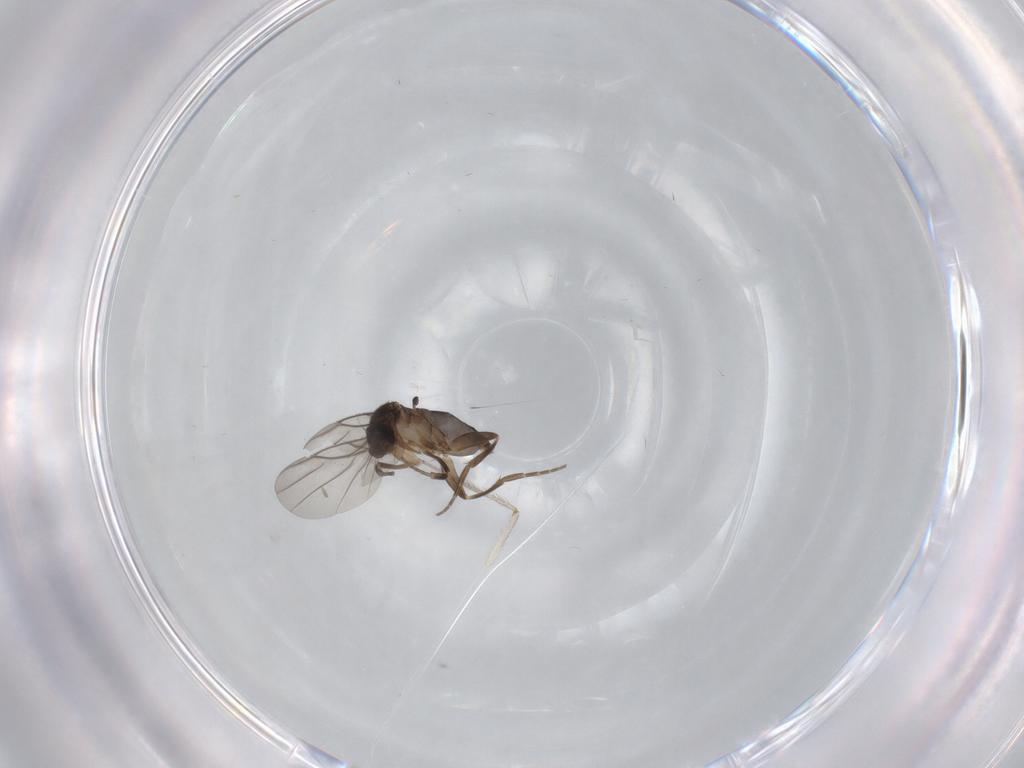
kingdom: Animalia
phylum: Arthropoda
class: Insecta
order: Diptera
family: Phoridae
